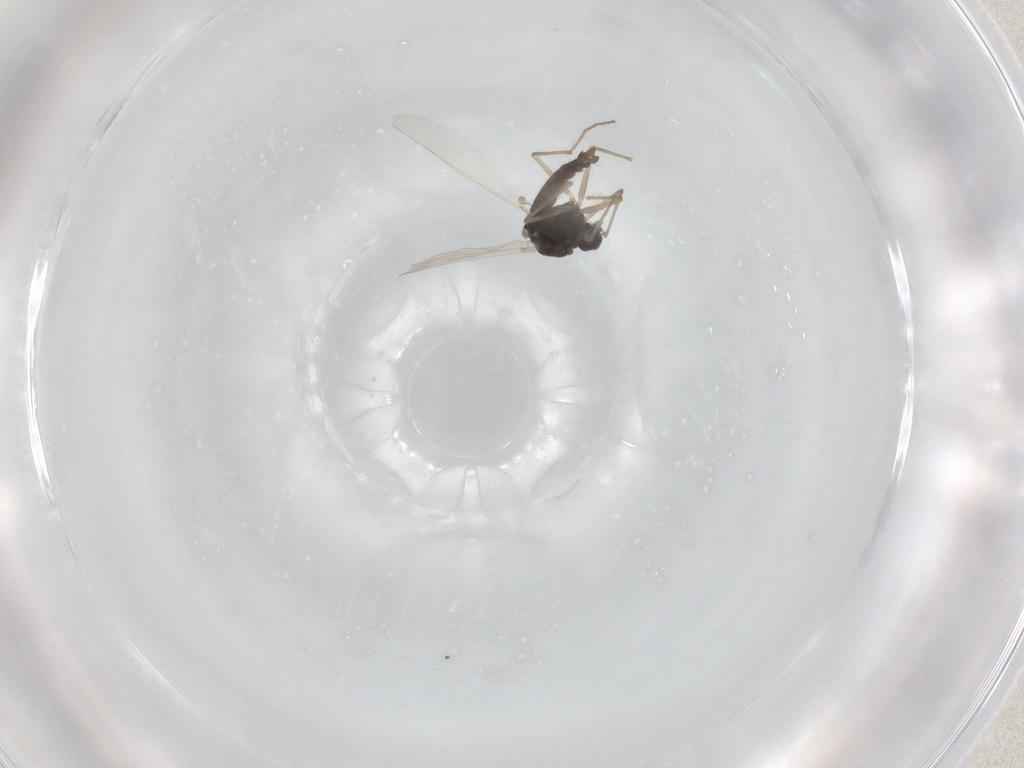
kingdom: Animalia
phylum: Arthropoda
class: Insecta
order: Diptera
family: Chironomidae
